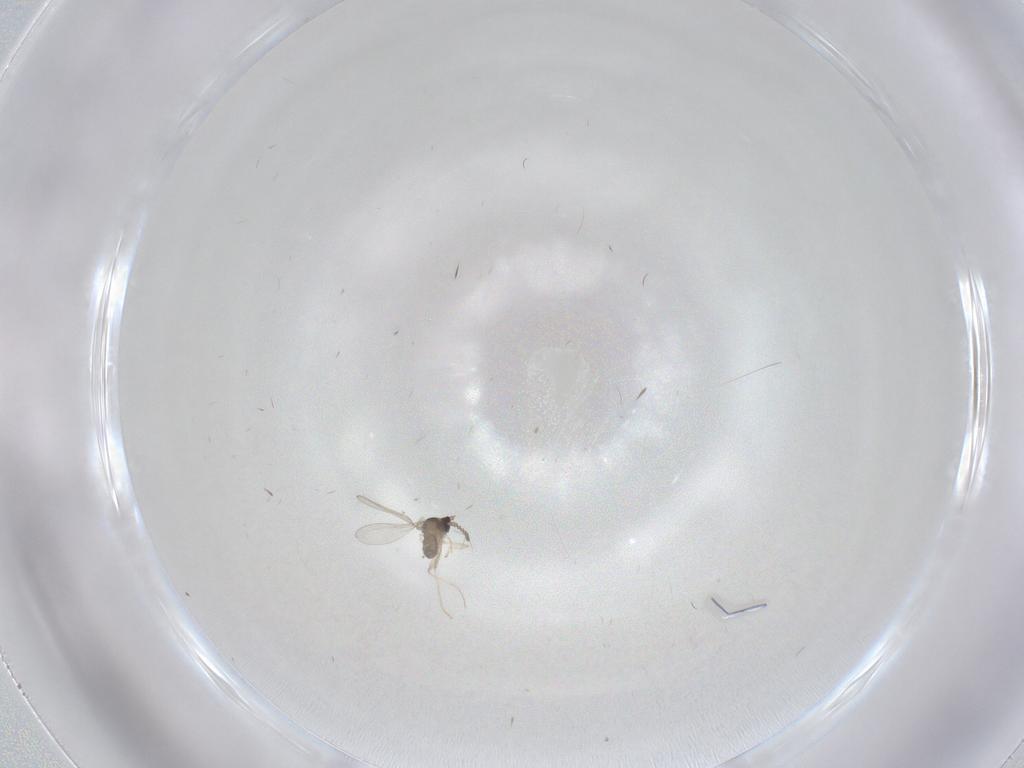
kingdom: Animalia
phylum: Arthropoda
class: Insecta
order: Diptera
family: Cecidomyiidae
